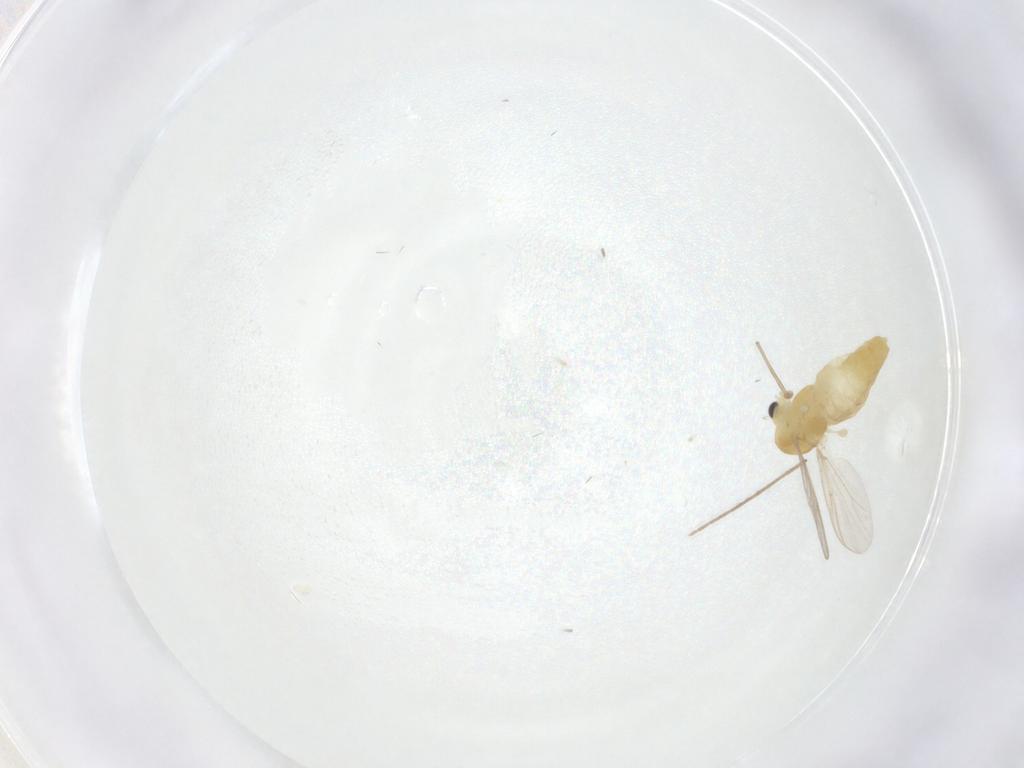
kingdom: Animalia
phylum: Arthropoda
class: Insecta
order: Diptera
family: Chironomidae
